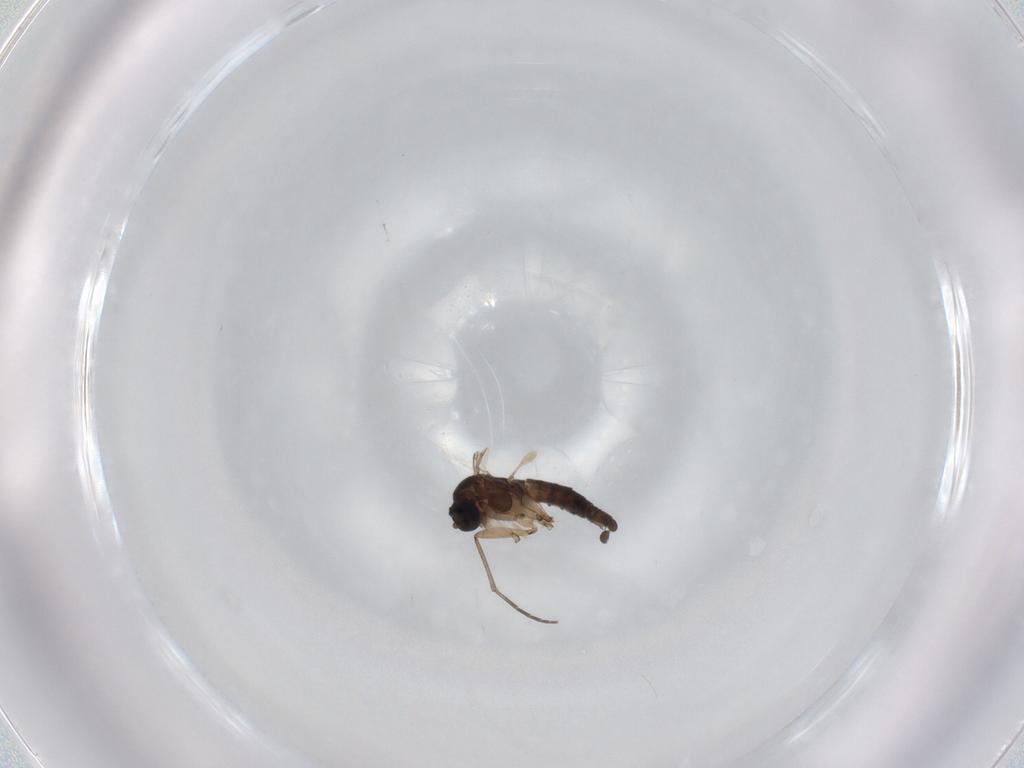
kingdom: Animalia
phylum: Arthropoda
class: Insecta
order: Diptera
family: Sciaridae
